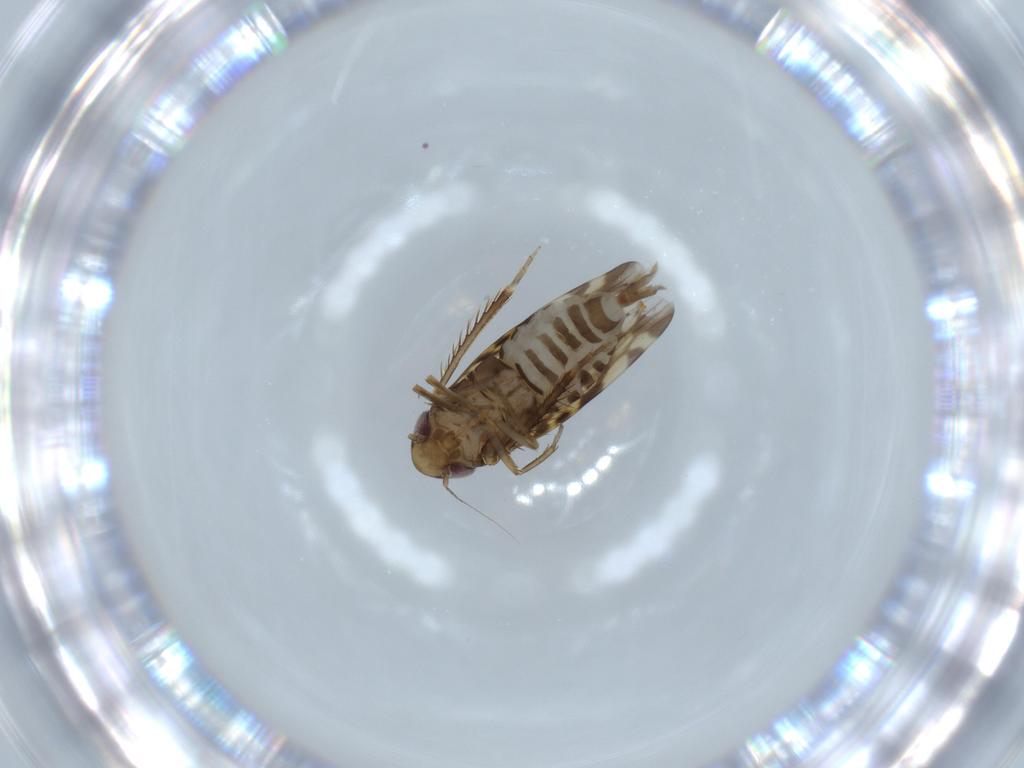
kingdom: Animalia
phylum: Arthropoda
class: Insecta
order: Hemiptera
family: Cicadellidae
